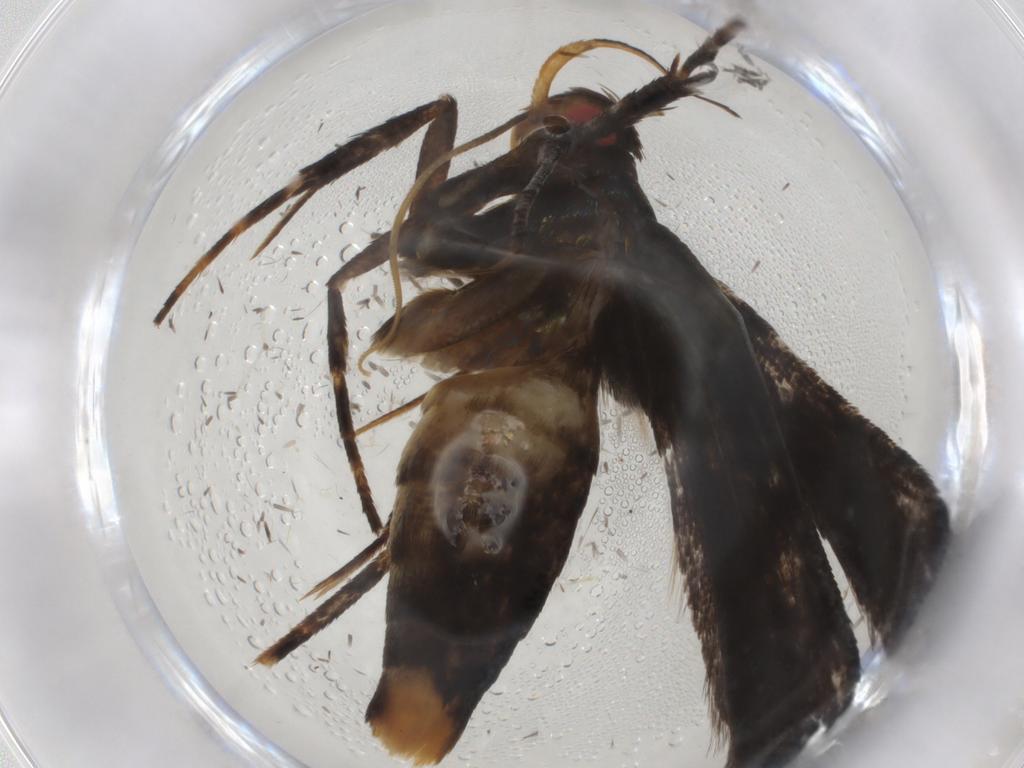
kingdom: Animalia
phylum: Arthropoda
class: Insecta
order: Lepidoptera
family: Gelechiidae
